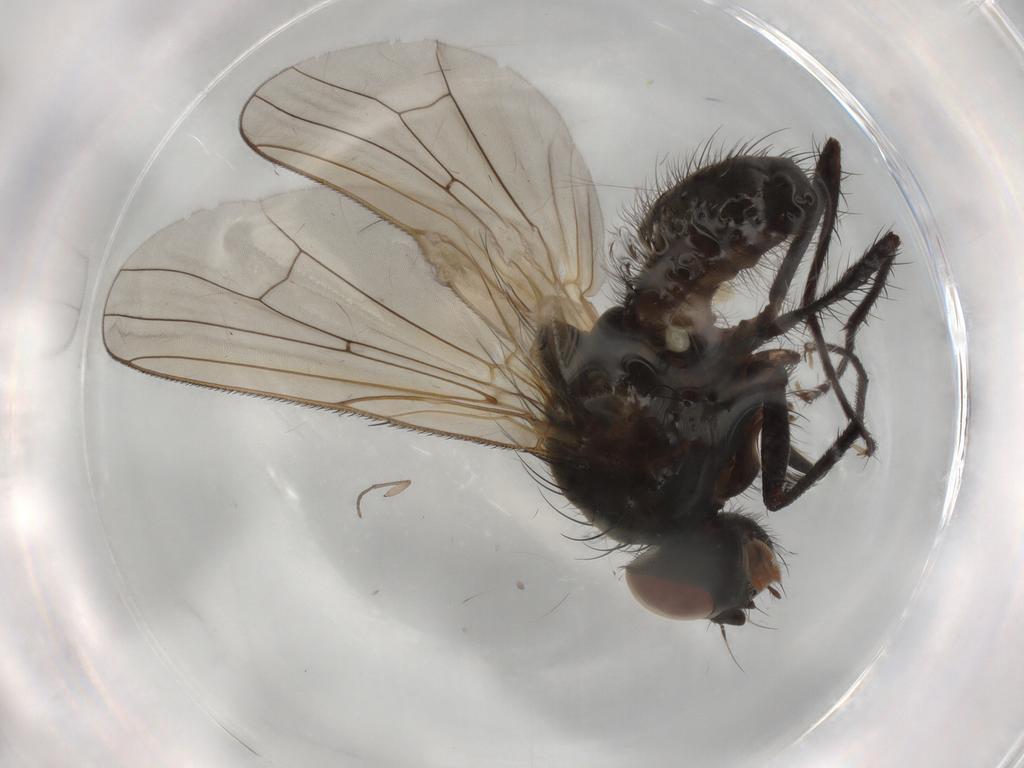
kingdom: Animalia
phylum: Arthropoda
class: Insecta
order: Diptera
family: Anthomyiidae
